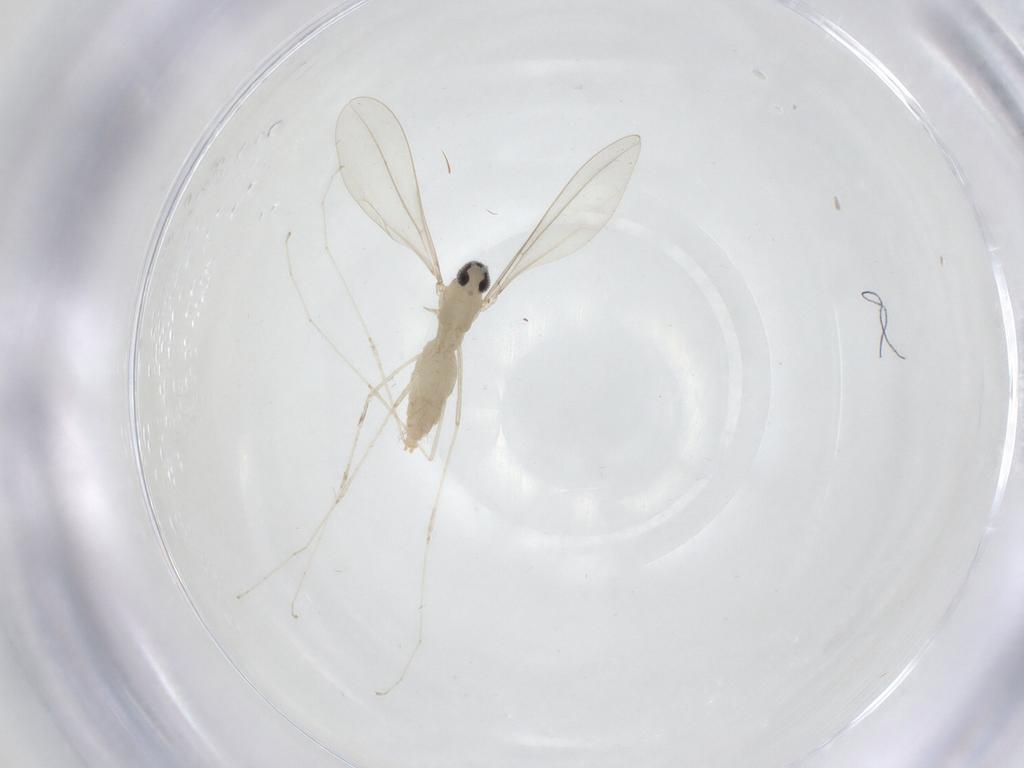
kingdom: Animalia
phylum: Arthropoda
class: Insecta
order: Diptera
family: Cecidomyiidae
